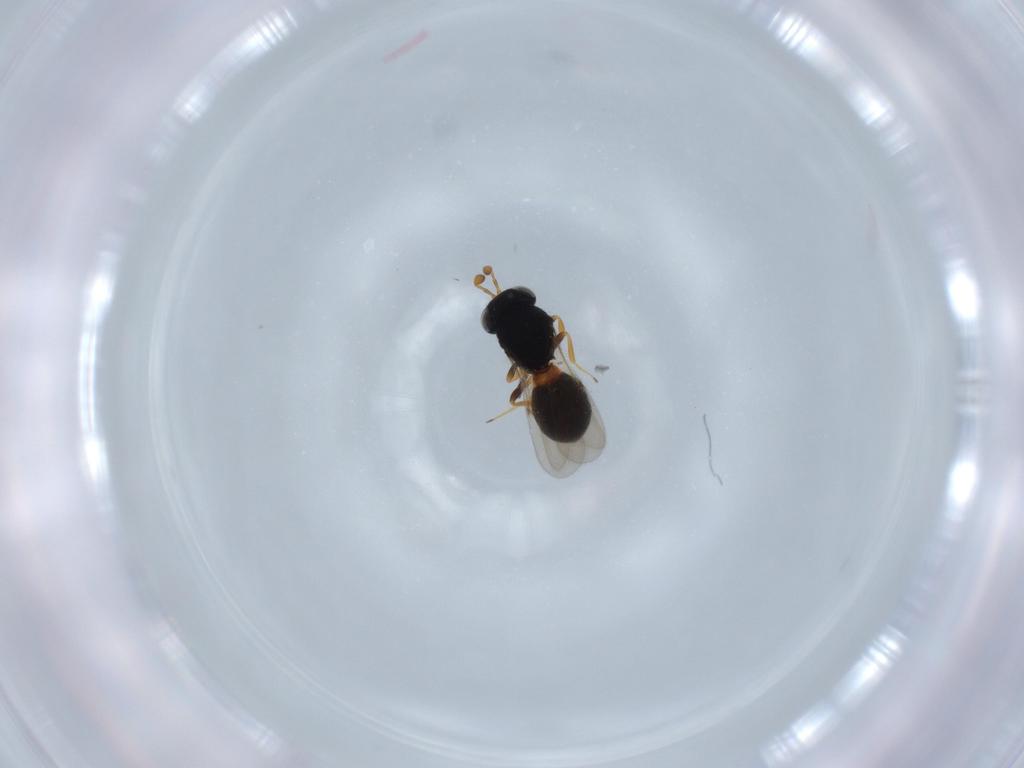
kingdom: Animalia
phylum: Arthropoda
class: Insecta
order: Hymenoptera
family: Scelionidae
